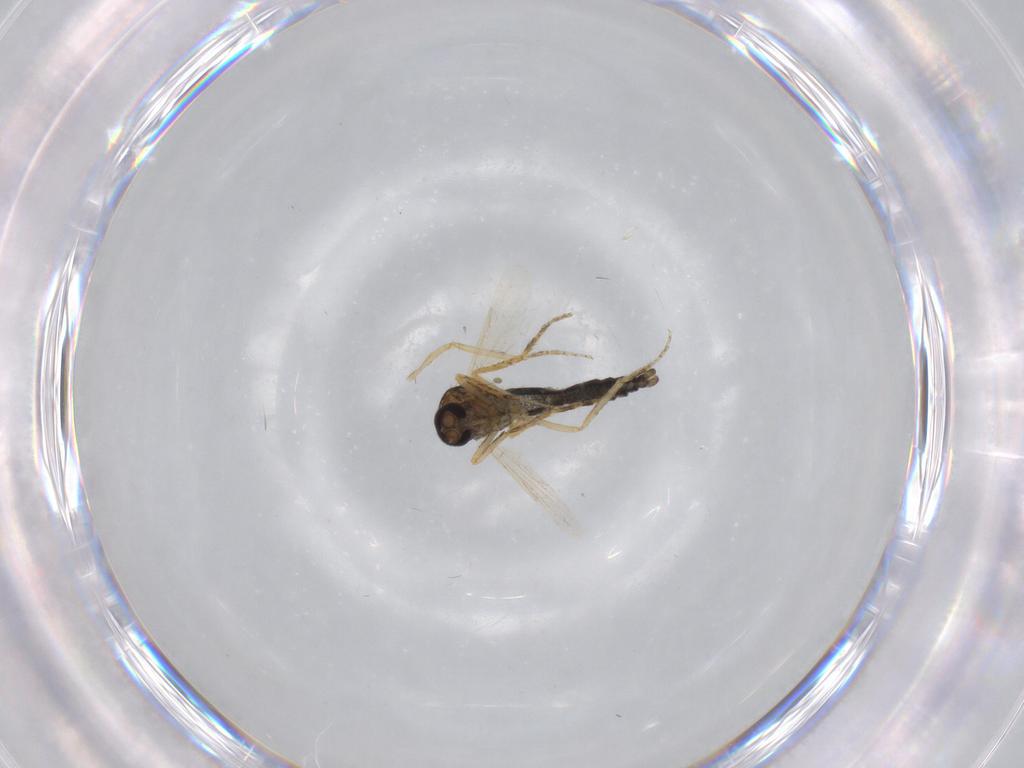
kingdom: Animalia
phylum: Arthropoda
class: Insecta
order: Diptera
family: Ceratopogonidae
